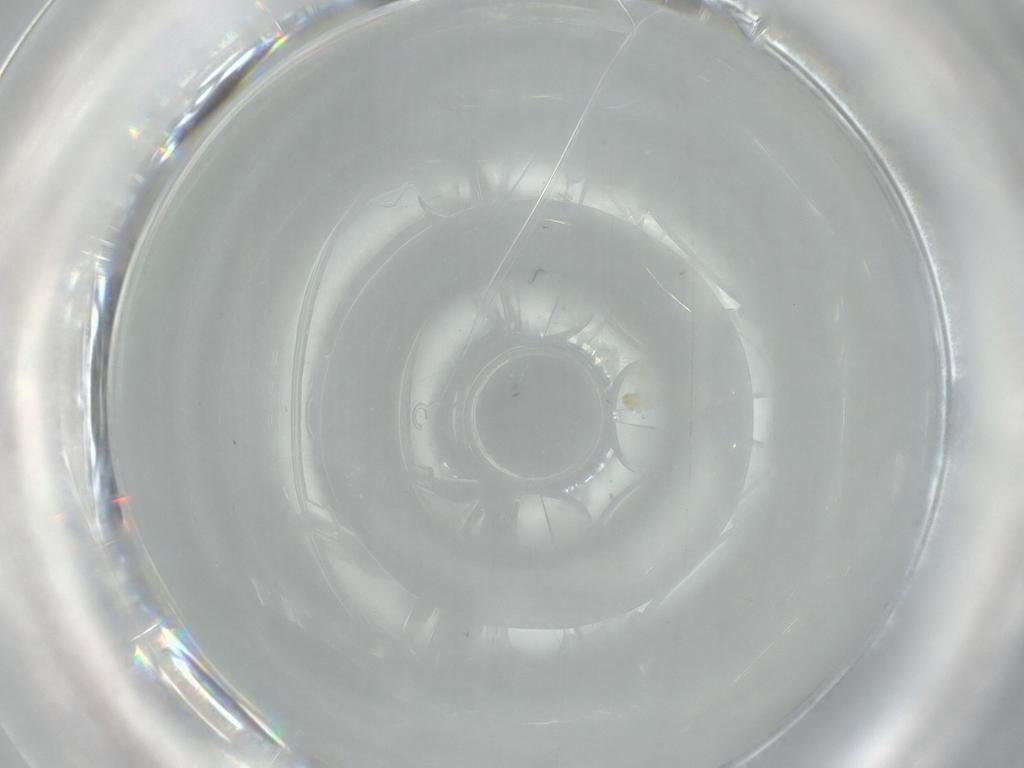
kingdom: Animalia
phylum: Arthropoda
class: Arachnida
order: Trombidiformes
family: Eupodidae
